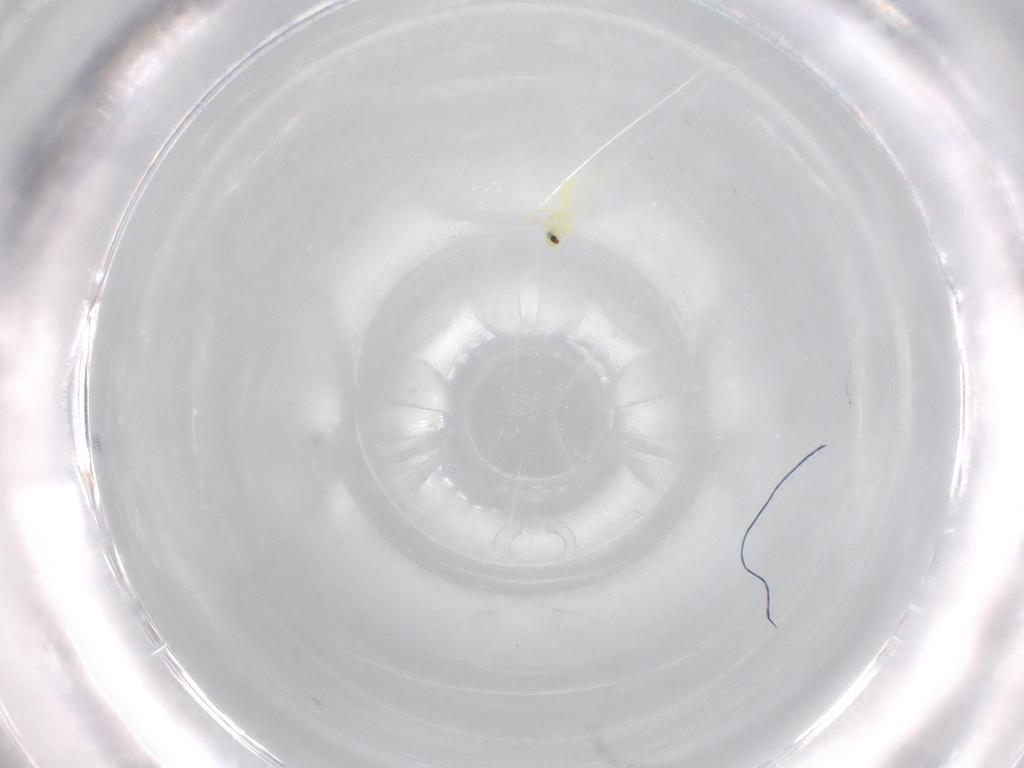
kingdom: Animalia
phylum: Arthropoda
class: Insecta
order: Hemiptera
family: Aleyrodidae
